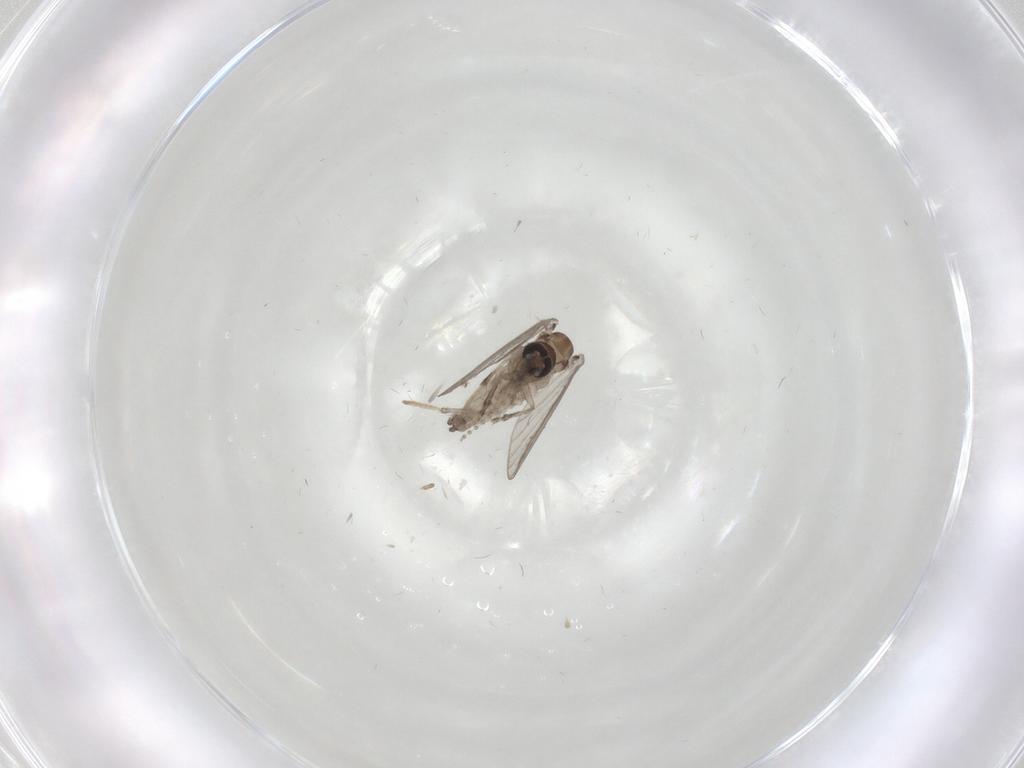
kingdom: Animalia
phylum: Arthropoda
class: Insecta
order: Diptera
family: Psychodidae
